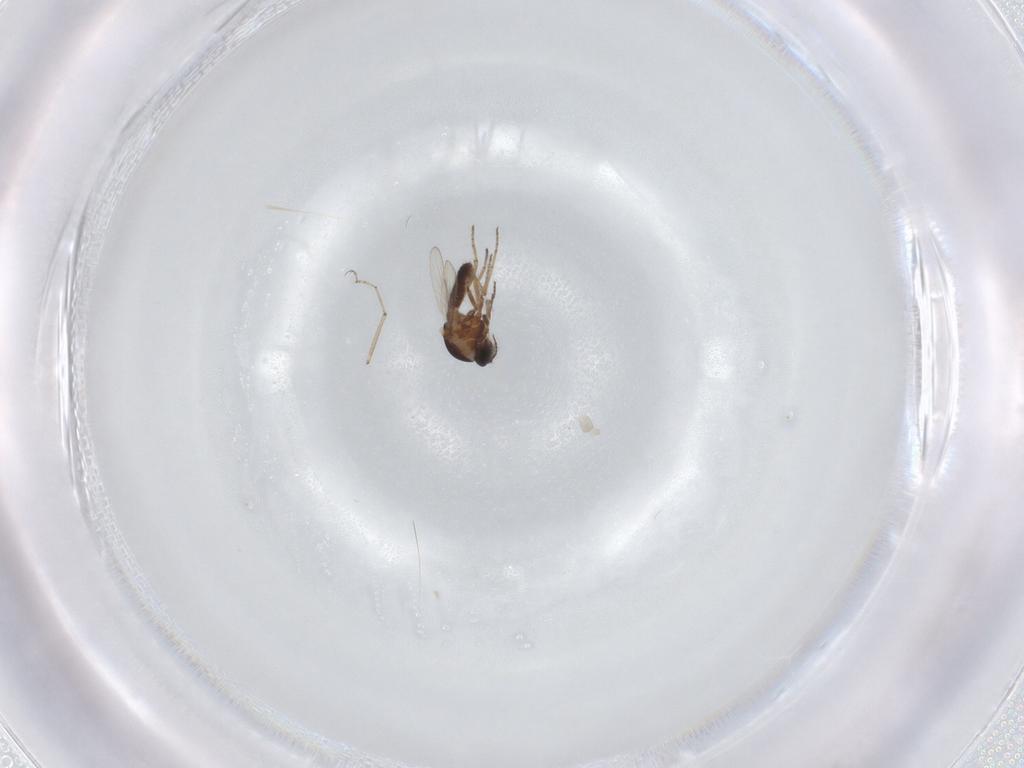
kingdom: Animalia
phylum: Arthropoda
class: Insecta
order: Diptera
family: Ceratopogonidae
